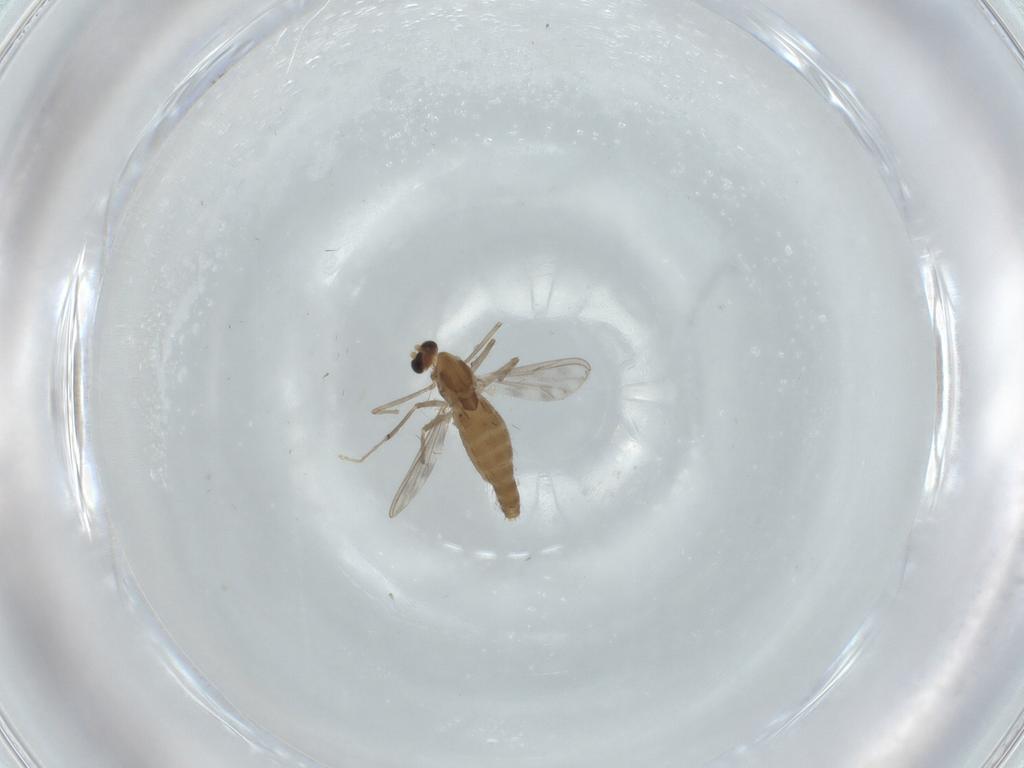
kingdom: Animalia
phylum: Arthropoda
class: Insecta
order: Diptera
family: Chironomidae
